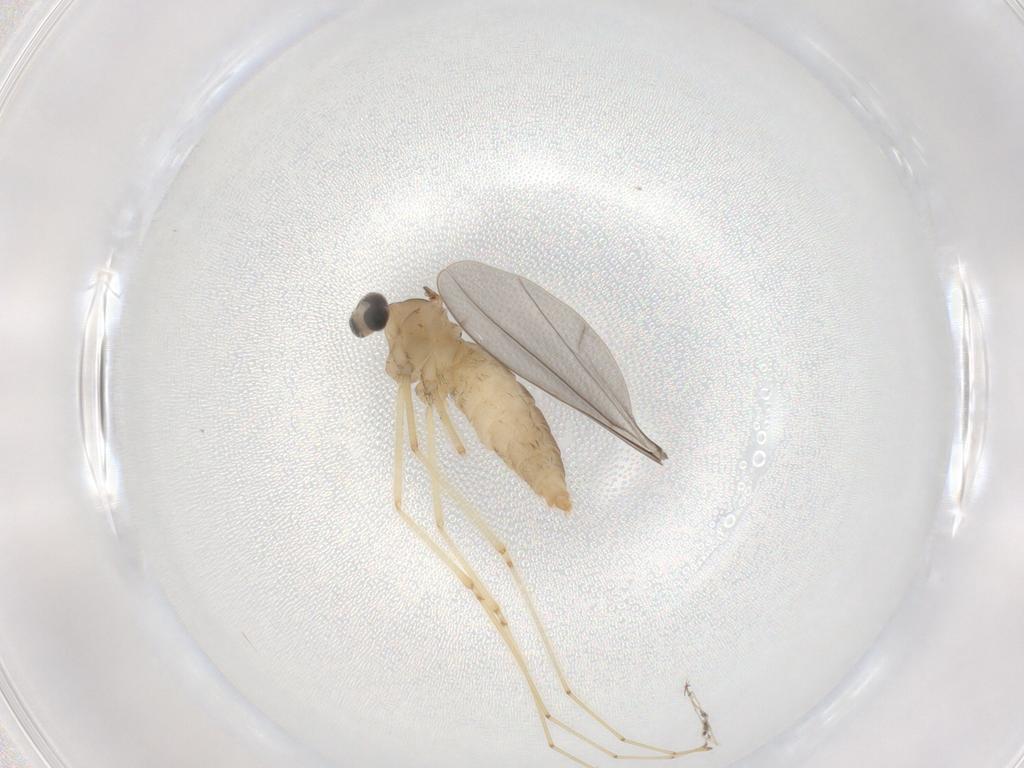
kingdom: Animalia
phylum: Arthropoda
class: Insecta
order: Diptera
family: Cecidomyiidae
